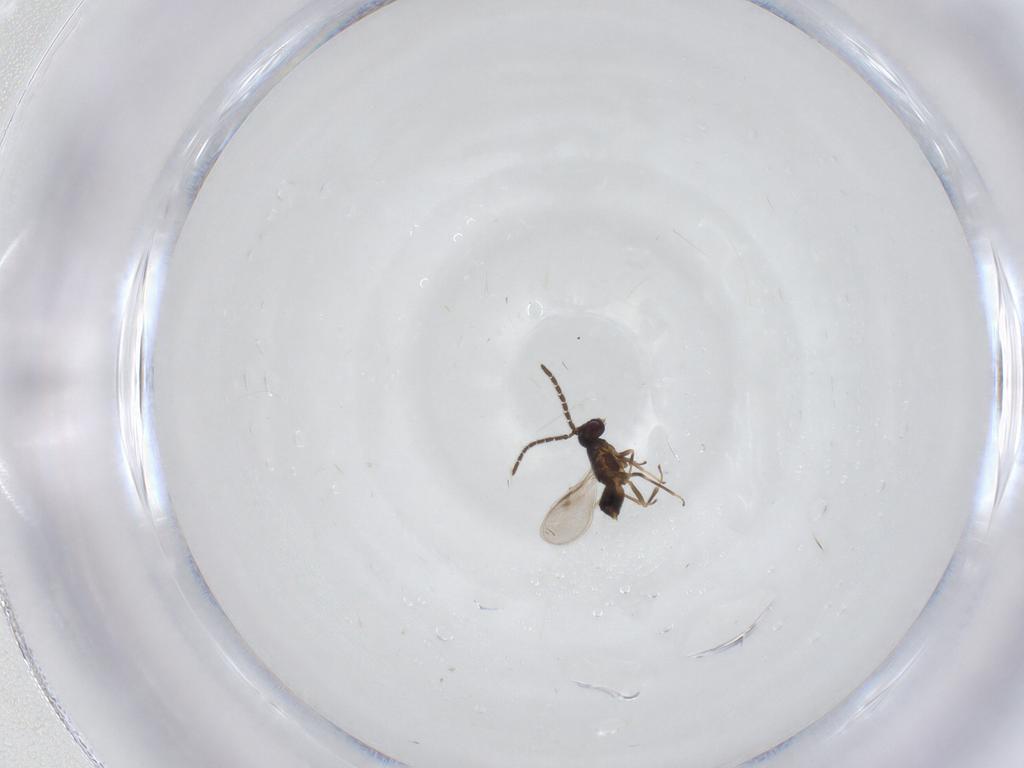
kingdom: Animalia
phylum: Arthropoda
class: Insecta
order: Hymenoptera
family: Encyrtidae
